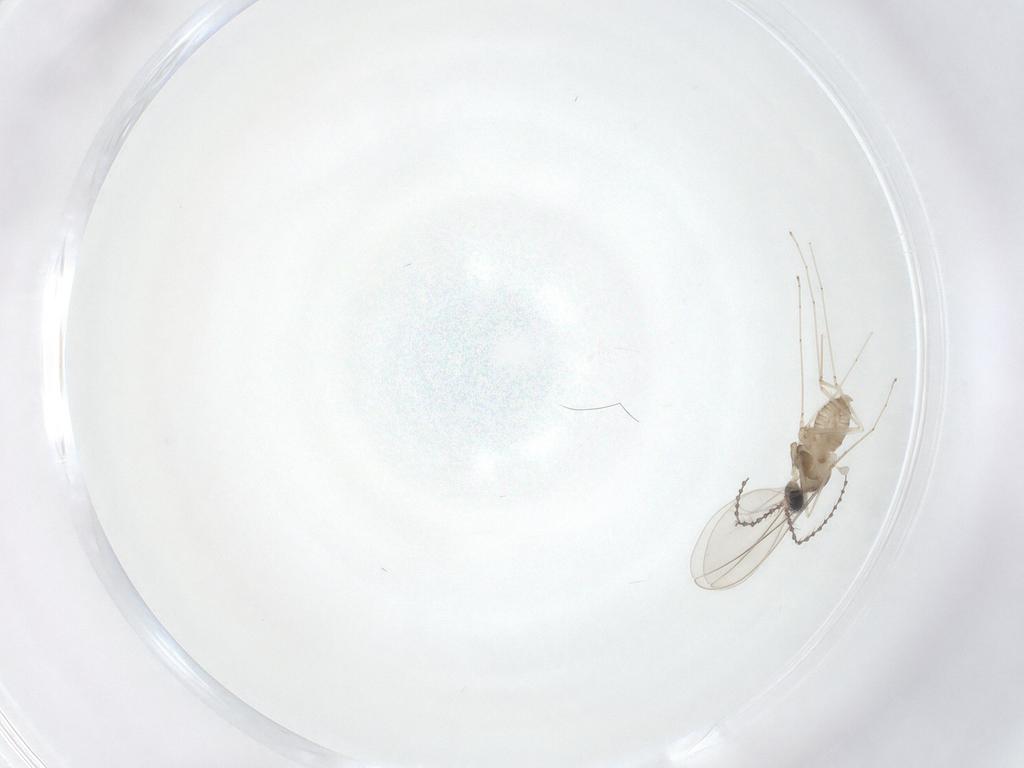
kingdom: Animalia
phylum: Arthropoda
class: Insecta
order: Diptera
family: Cecidomyiidae
